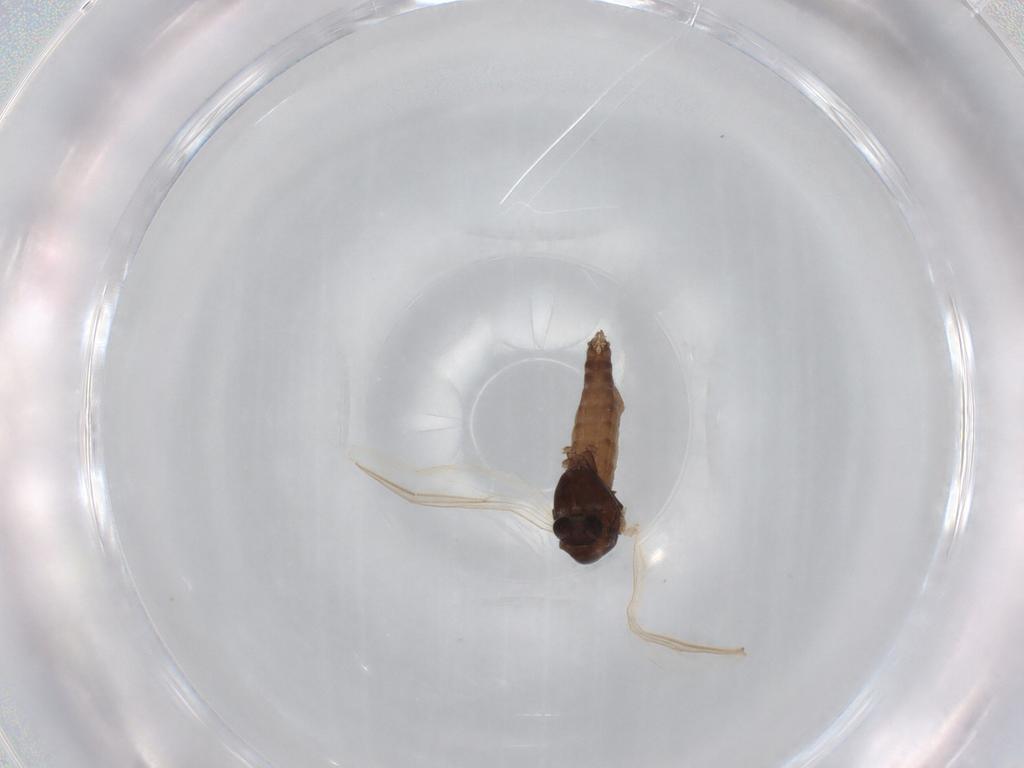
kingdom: Animalia
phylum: Arthropoda
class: Insecta
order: Diptera
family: Chironomidae
